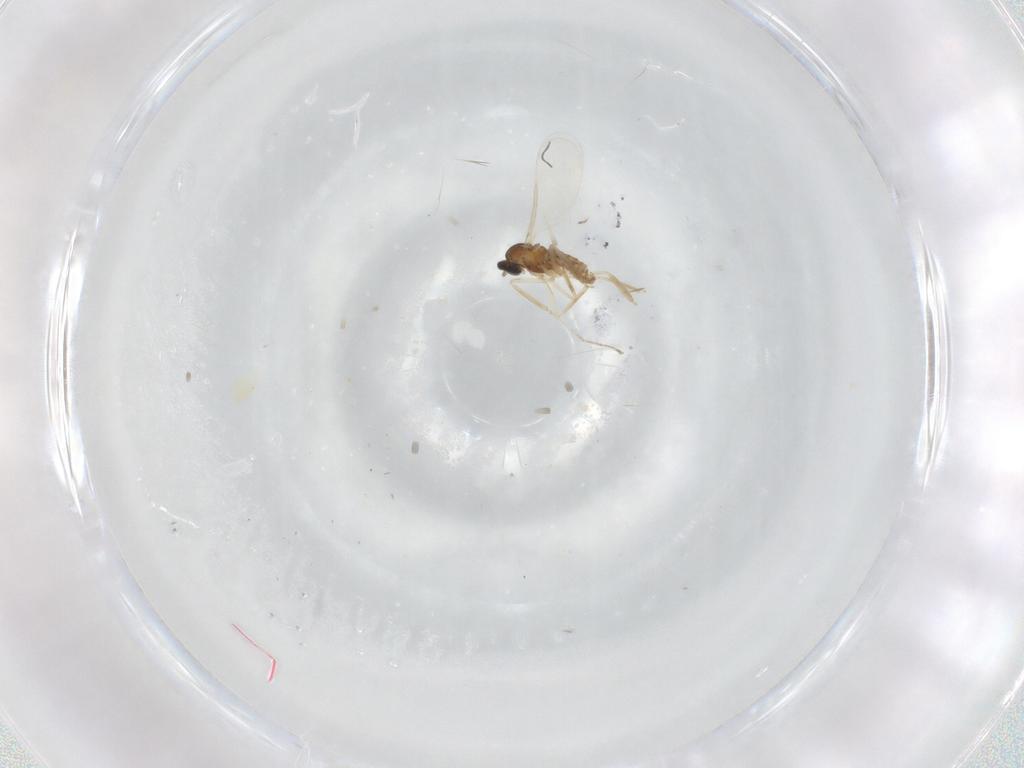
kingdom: Animalia
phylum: Arthropoda
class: Insecta
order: Diptera
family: Cecidomyiidae
